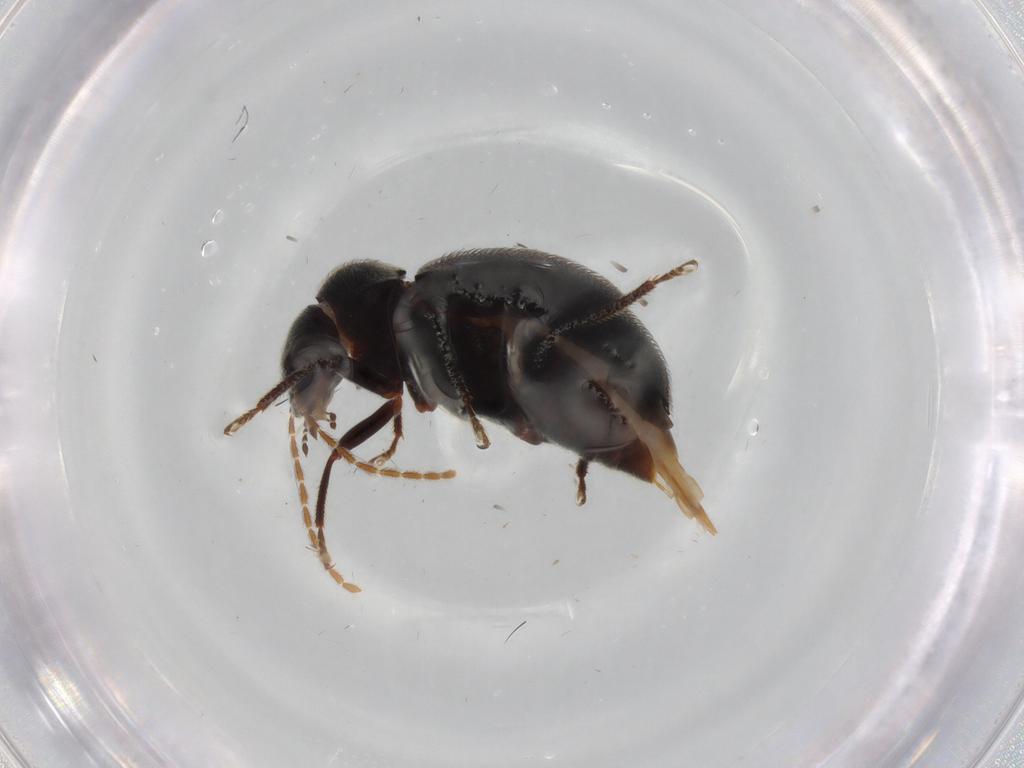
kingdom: Animalia
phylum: Arthropoda
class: Insecta
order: Coleoptera
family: Ptilodactylidae
